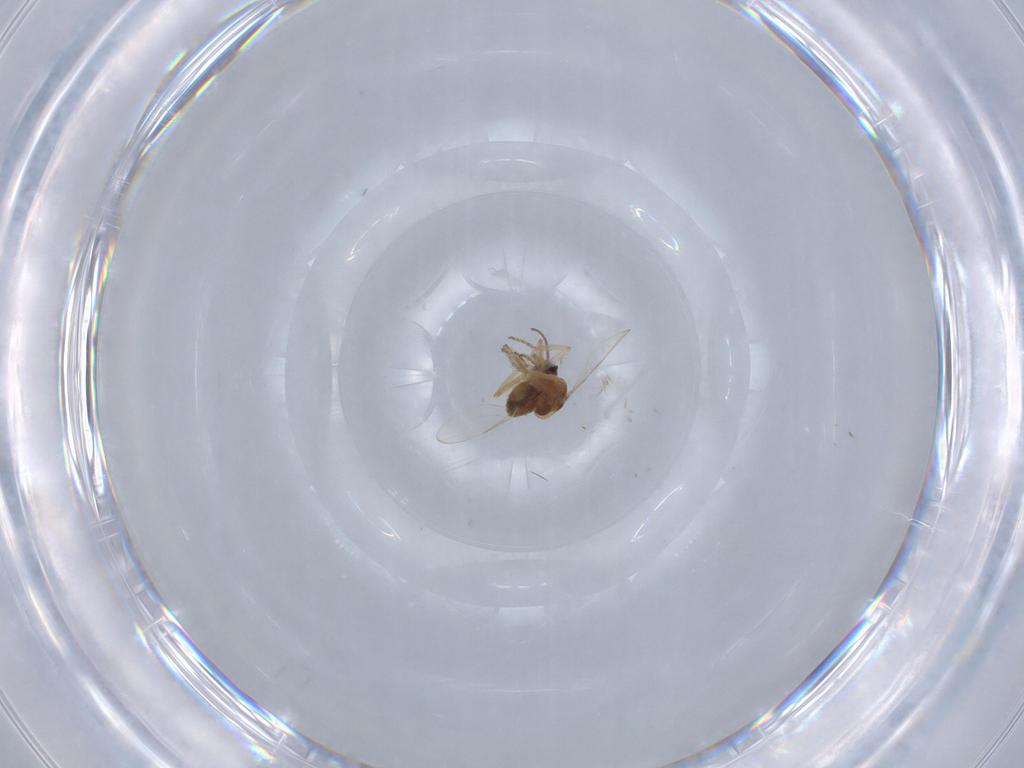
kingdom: Animalia
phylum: Arthropoda
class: Insecta
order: Diptera
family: Ceratopogonidae
